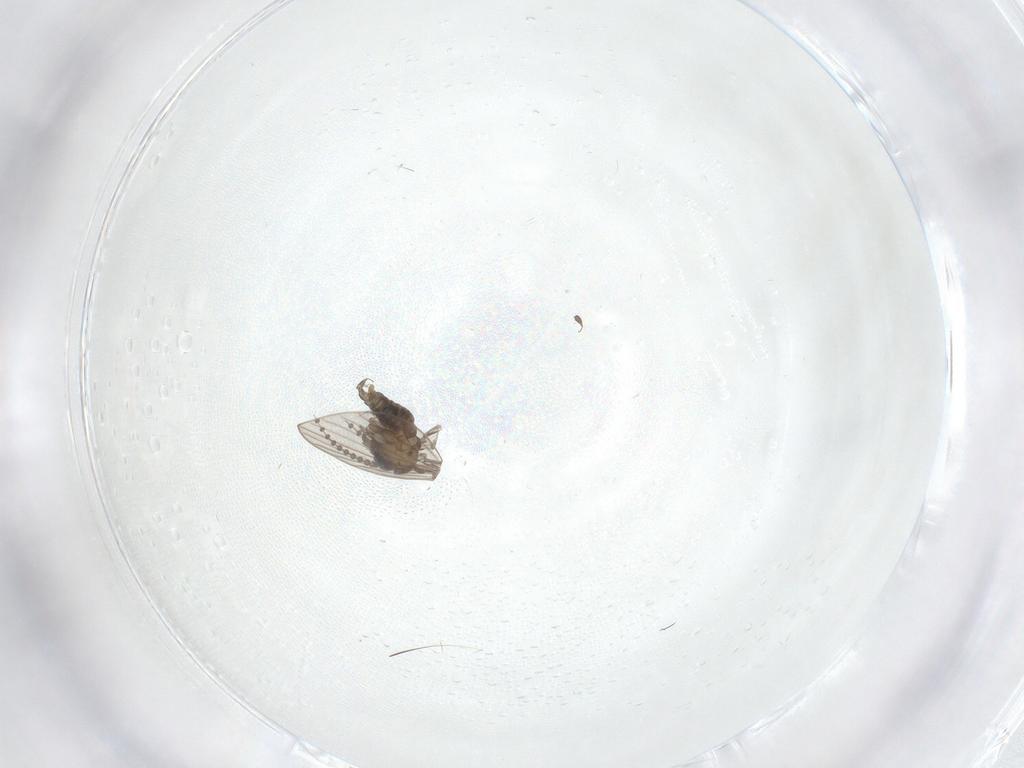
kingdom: Animalia
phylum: Arthropoda
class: Insecta
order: Diptera
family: Psychodidae
